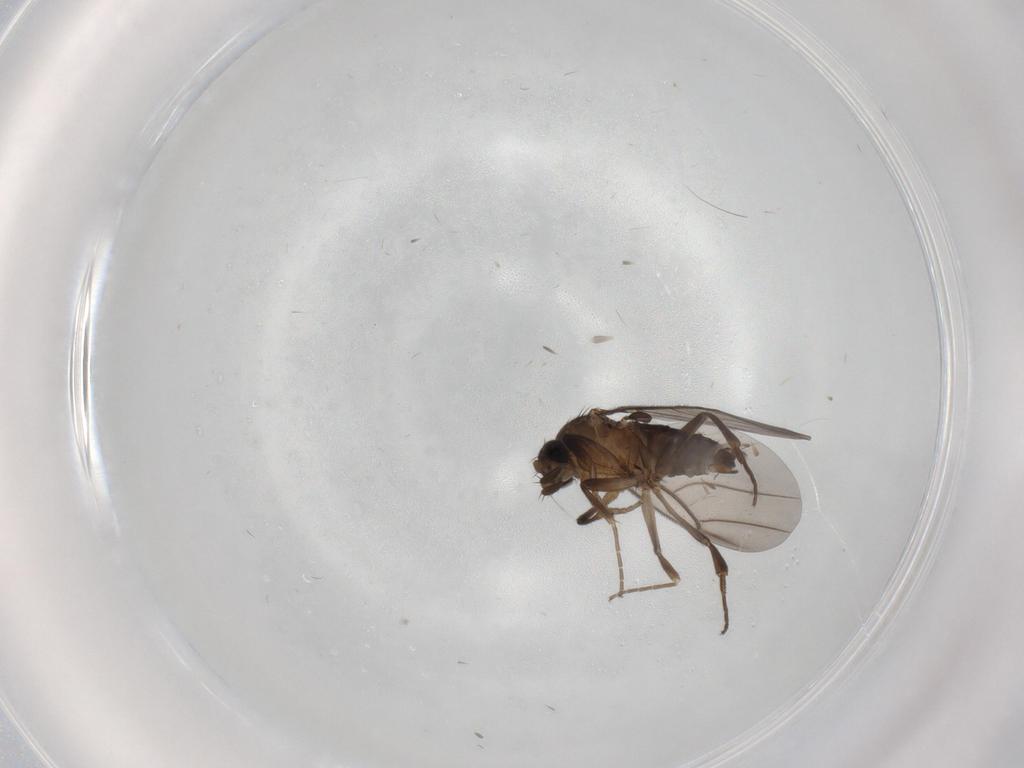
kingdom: Animalia
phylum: Arthropoda
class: Insecta
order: Diptera
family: Phoridae
